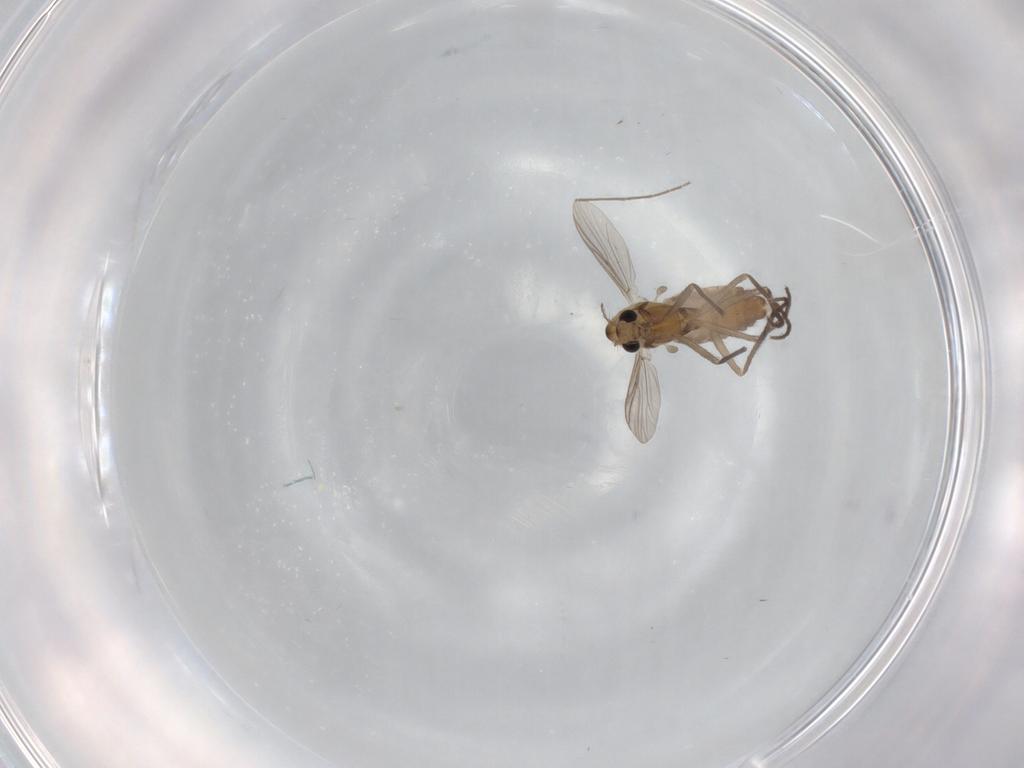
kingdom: Animalia
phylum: Arthropoda
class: Insecta
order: Diptera
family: Chironomidae
